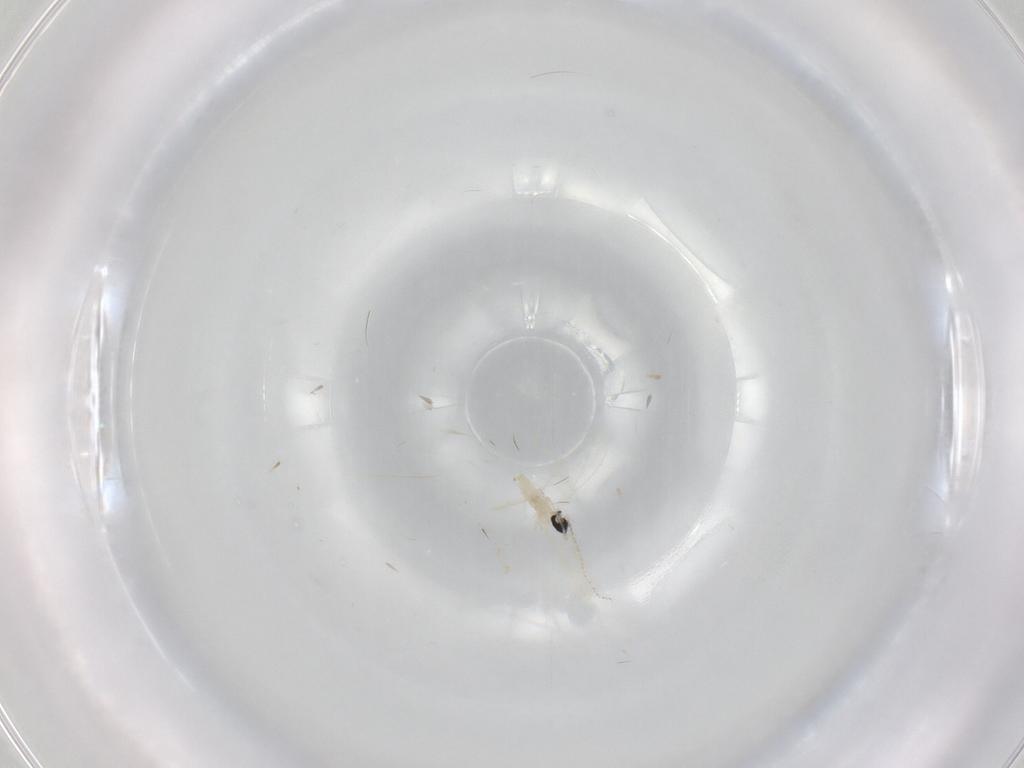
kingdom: Animalia
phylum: Arthropoda
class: Insecta
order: Diptera
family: Cecidomyiidae
